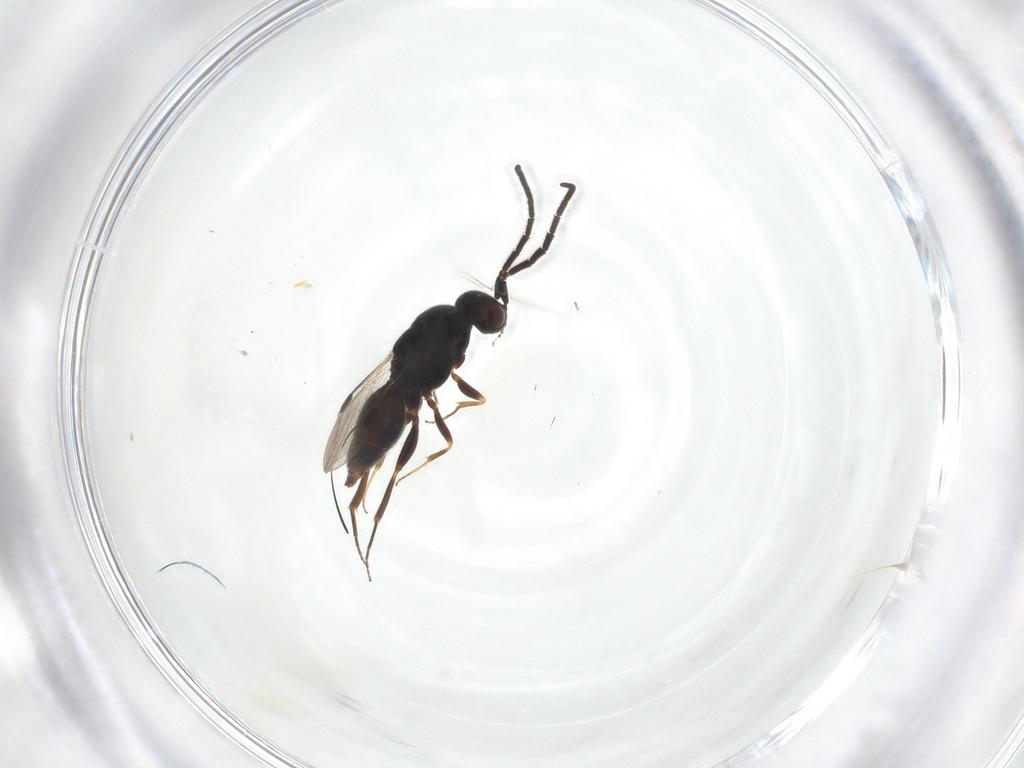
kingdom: Animalia
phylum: Arthropoda
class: Insecta
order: Hymenoptera
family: Megaspilidae
